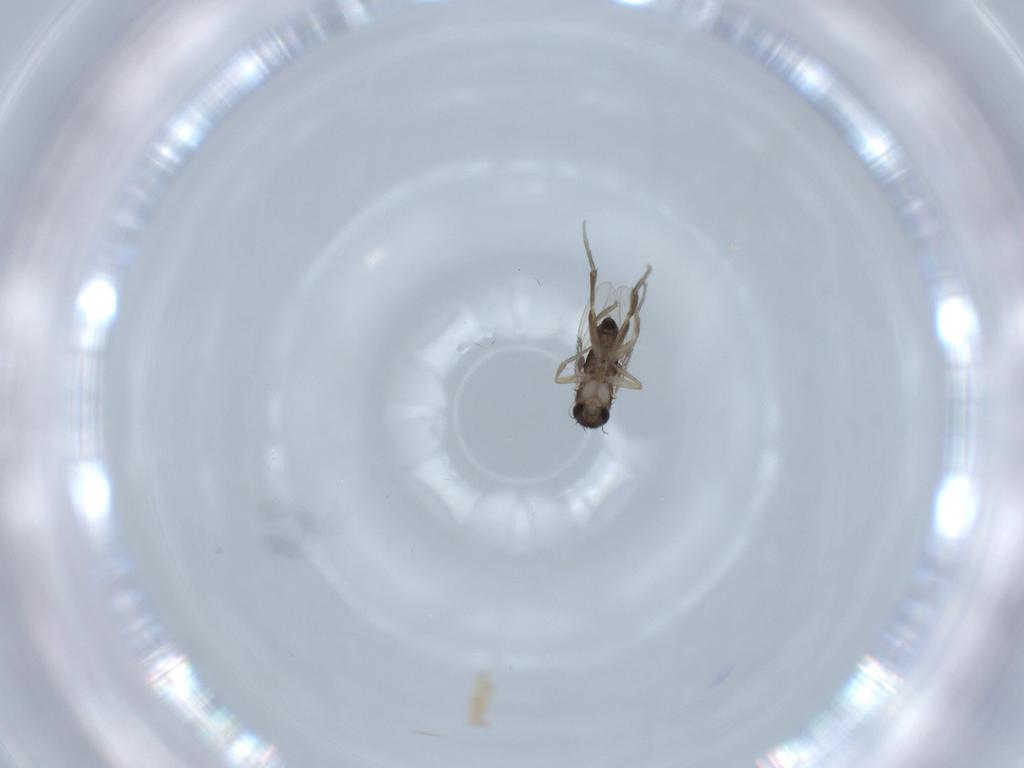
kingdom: Animalia
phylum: Arthropoda
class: Insecta
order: Diptera
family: Phoridae
